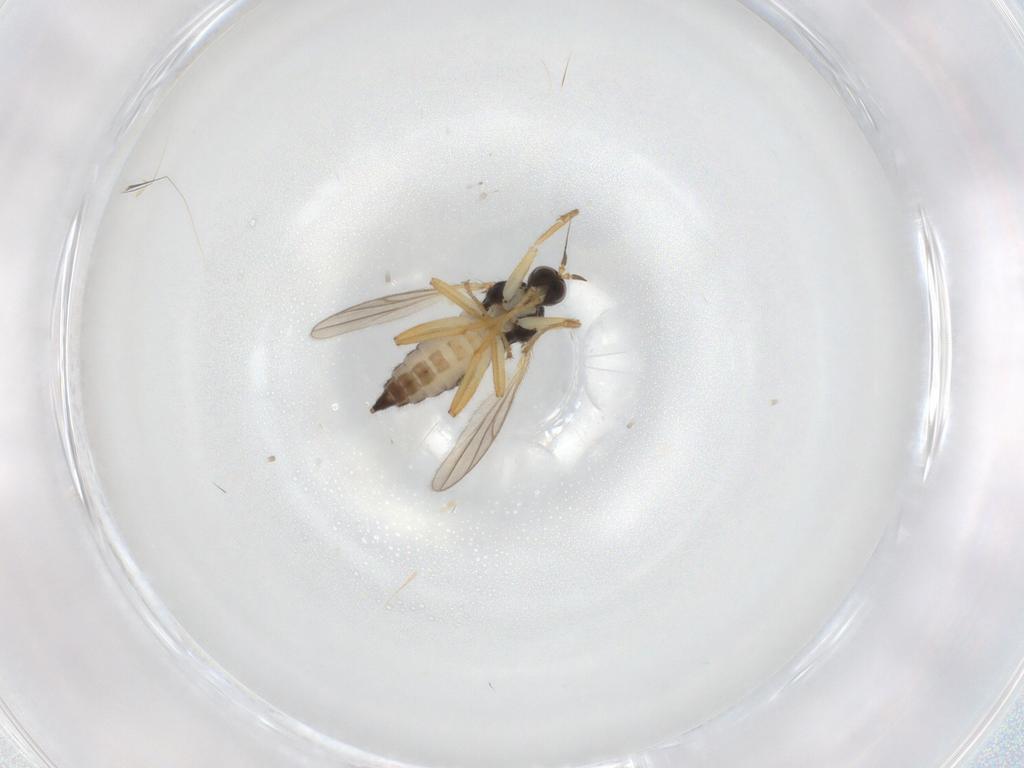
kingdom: Animalia
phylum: Arthropoda
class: Insecta
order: Diptera
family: Hybotidae
